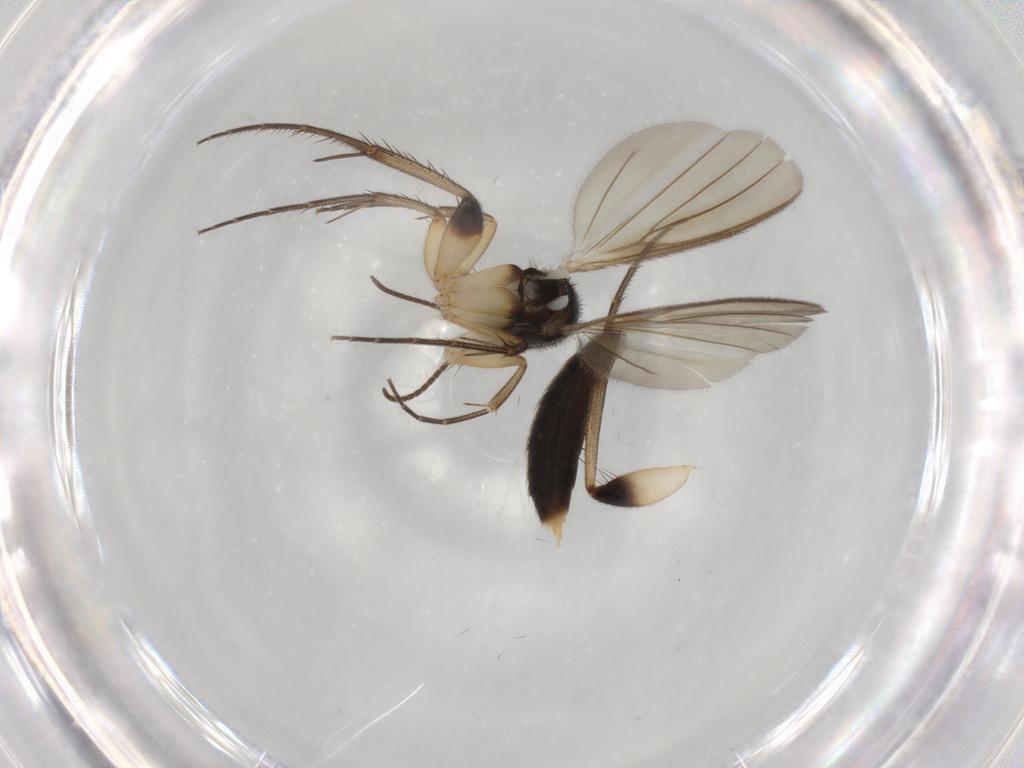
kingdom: Animalia
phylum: Arthropoda
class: Insecta
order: Diptera
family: Mycetophilidae
